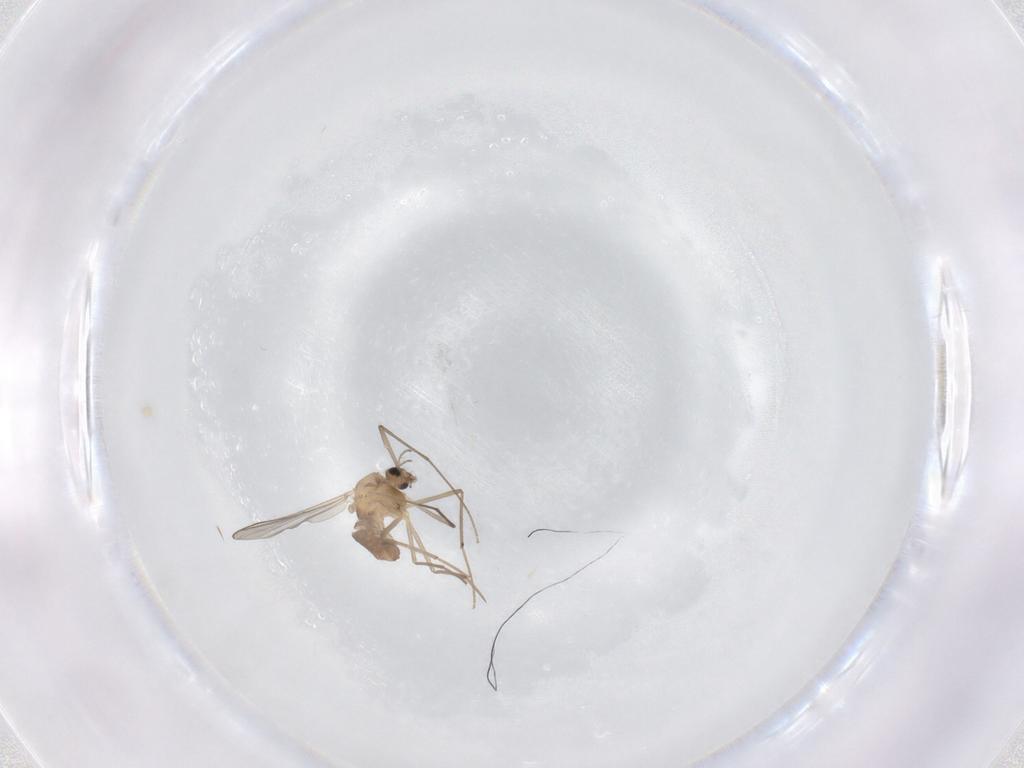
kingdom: Animalia
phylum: Arthropoda
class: Insecta
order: Diptera
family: Chironomidae
